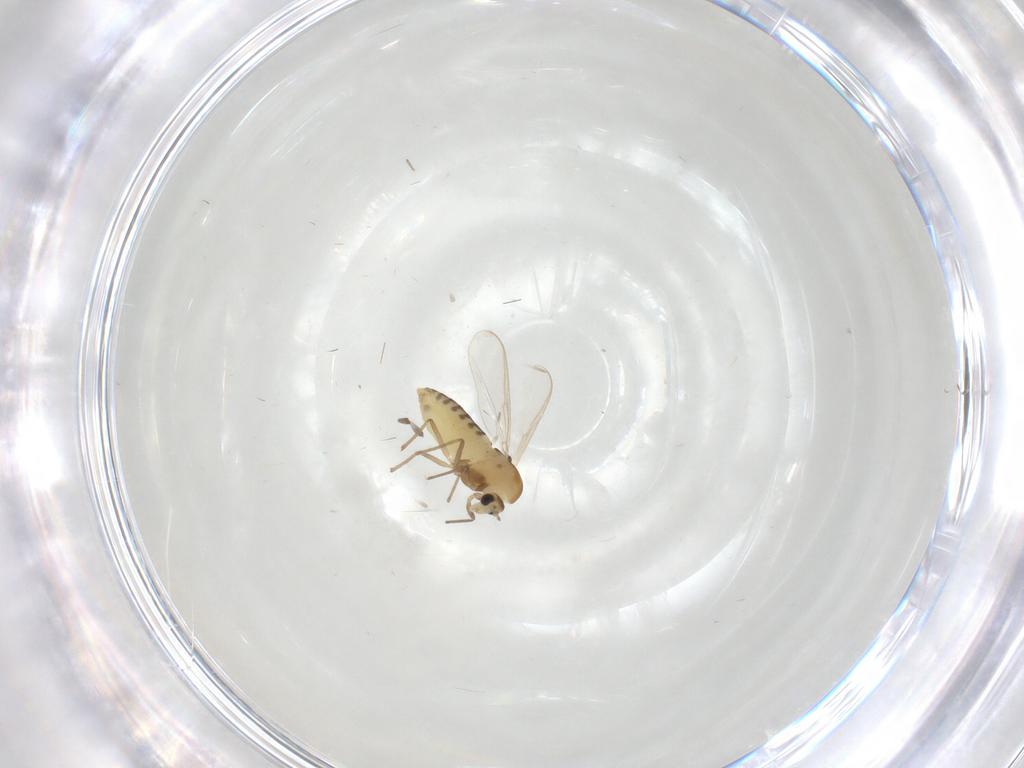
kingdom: Animalia
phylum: Arthropoda
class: Insecta
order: Diptera
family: Chironomidae
